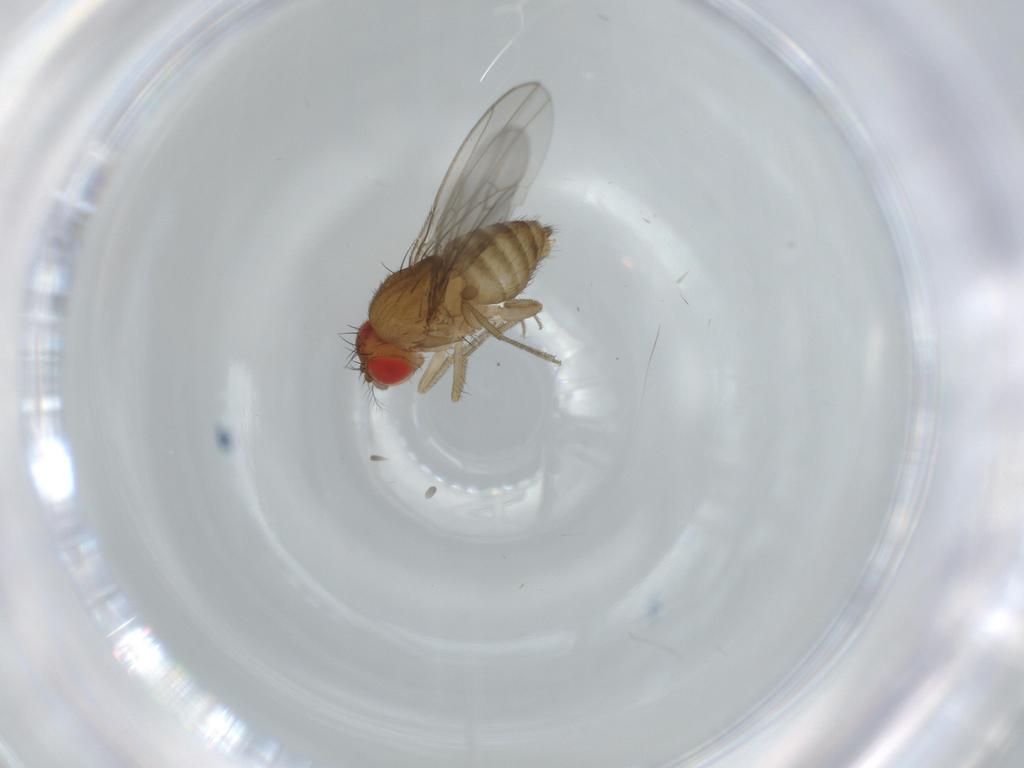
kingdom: Animalia
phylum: Arthropoda
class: Insecta
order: Diptera
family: Drosophilidae
